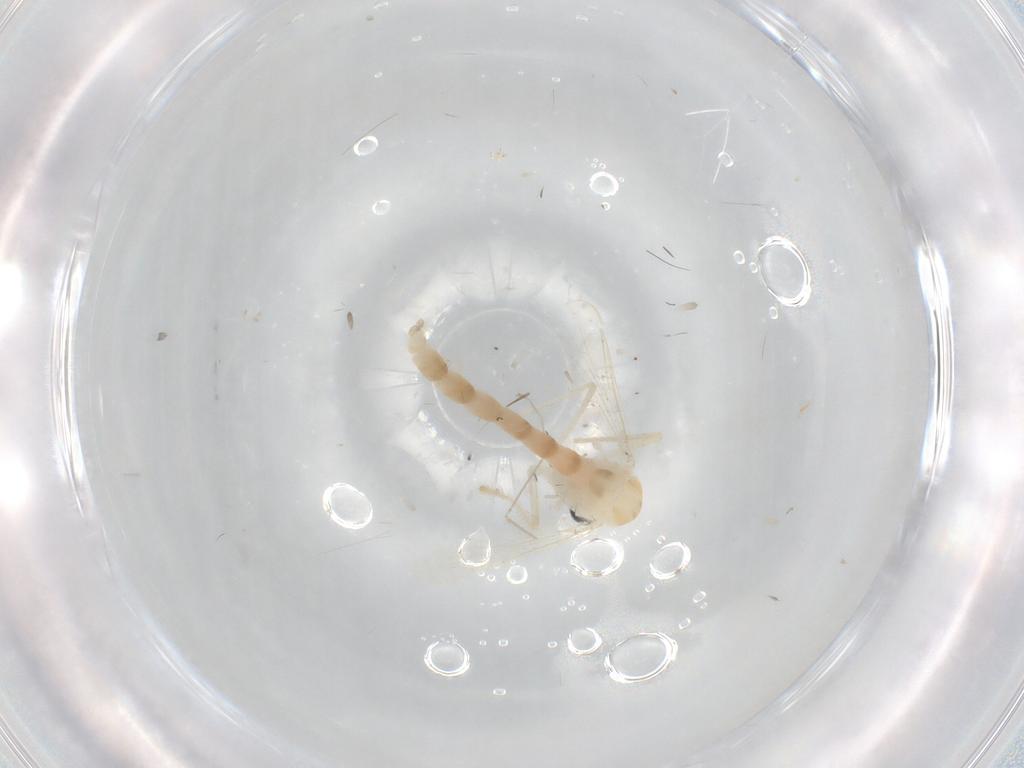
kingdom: Animalia
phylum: Arthropoda
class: Insecta
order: Diptera
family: Chironomidae
